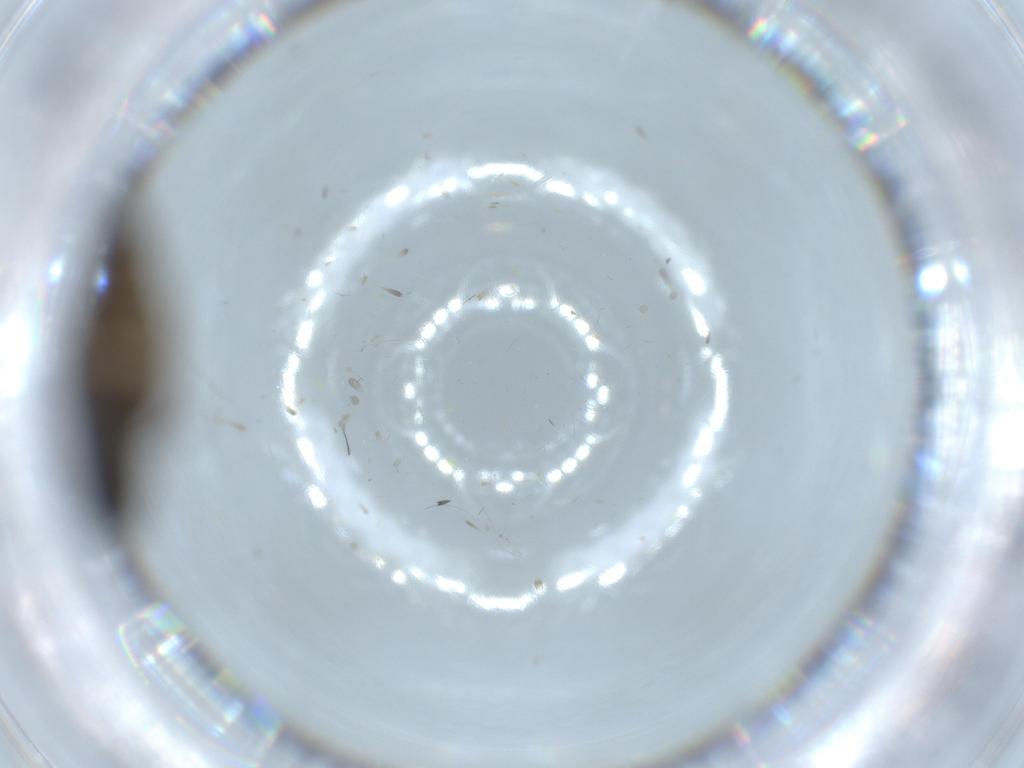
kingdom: Animalia
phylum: Arthropoda
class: Insecta
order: Diptera
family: Sciaridae
